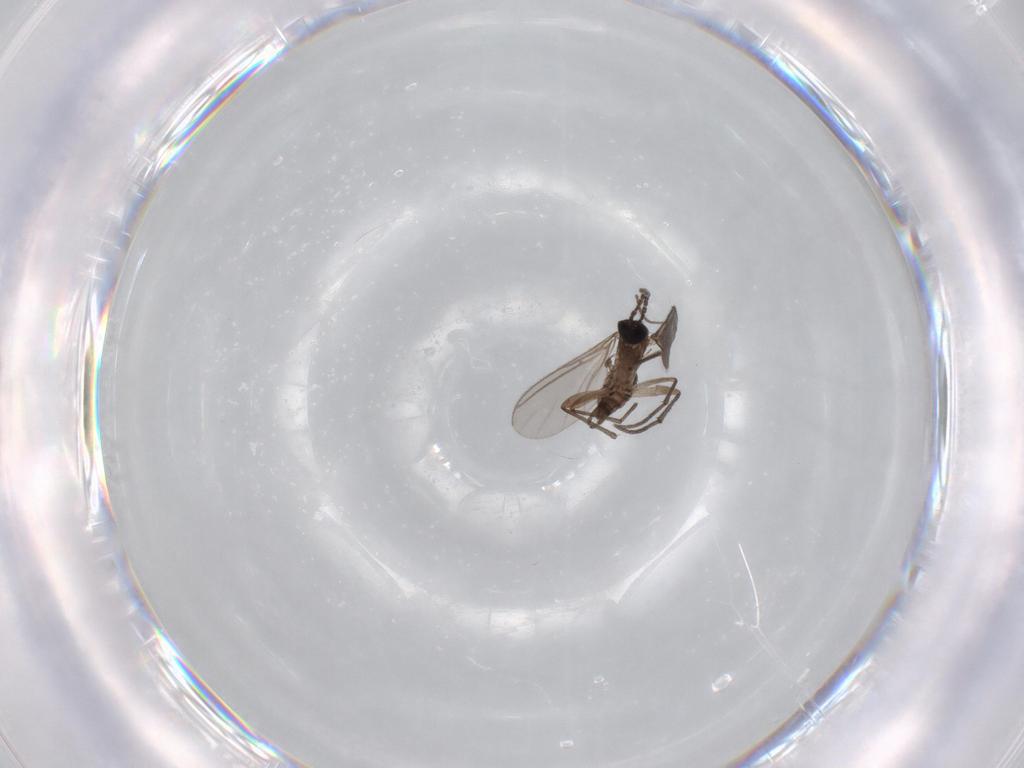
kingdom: Animalia
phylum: Arthropoda
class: Insecta
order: Diptera
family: Sciaridae
